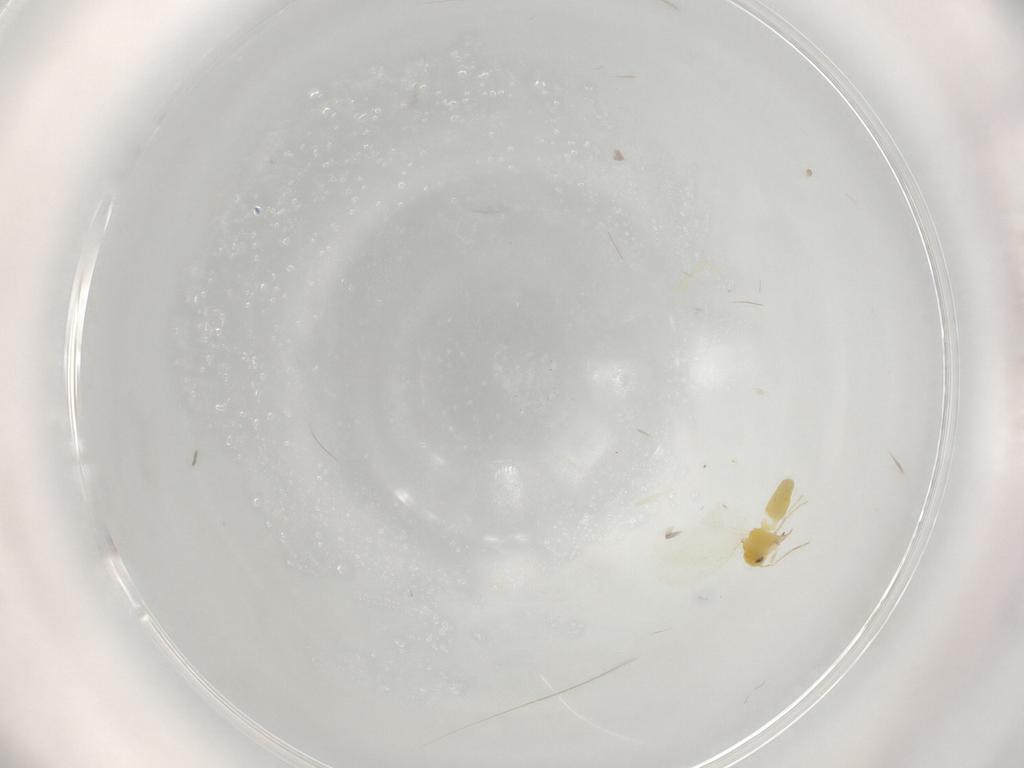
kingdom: Animalia
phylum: Arthropoda
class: Insecta
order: Hemiptera
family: Aleyrodidae
